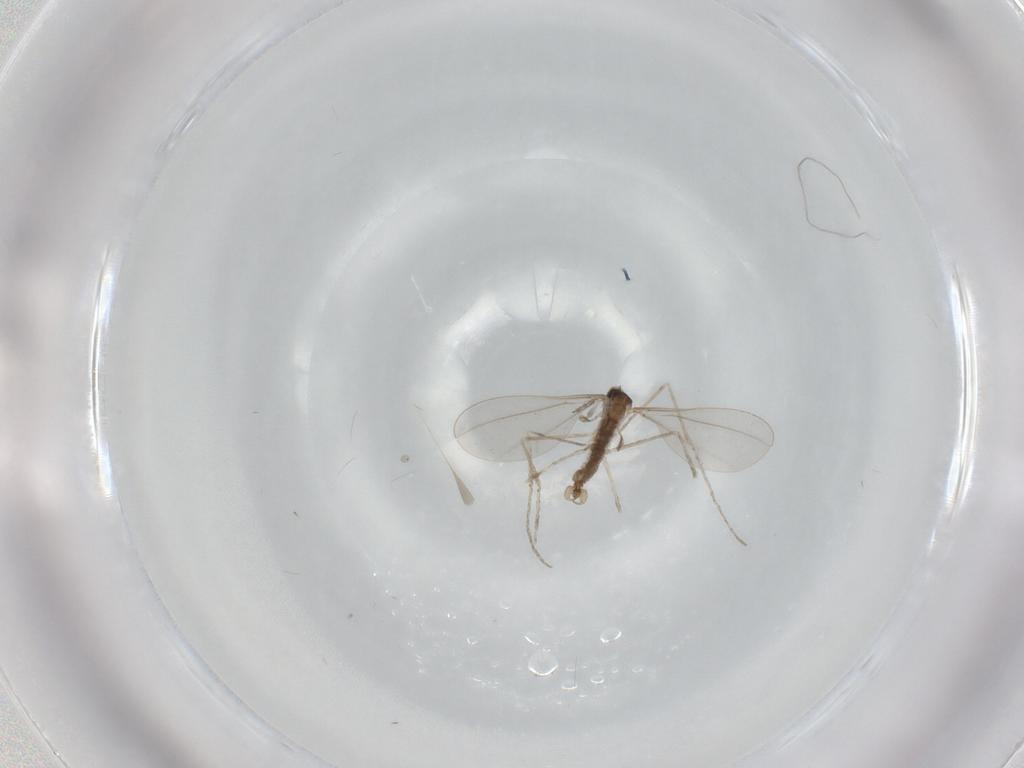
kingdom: Animalia
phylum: Arthropoda
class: Insecta
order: Diptera
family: Cecidomyiidae
